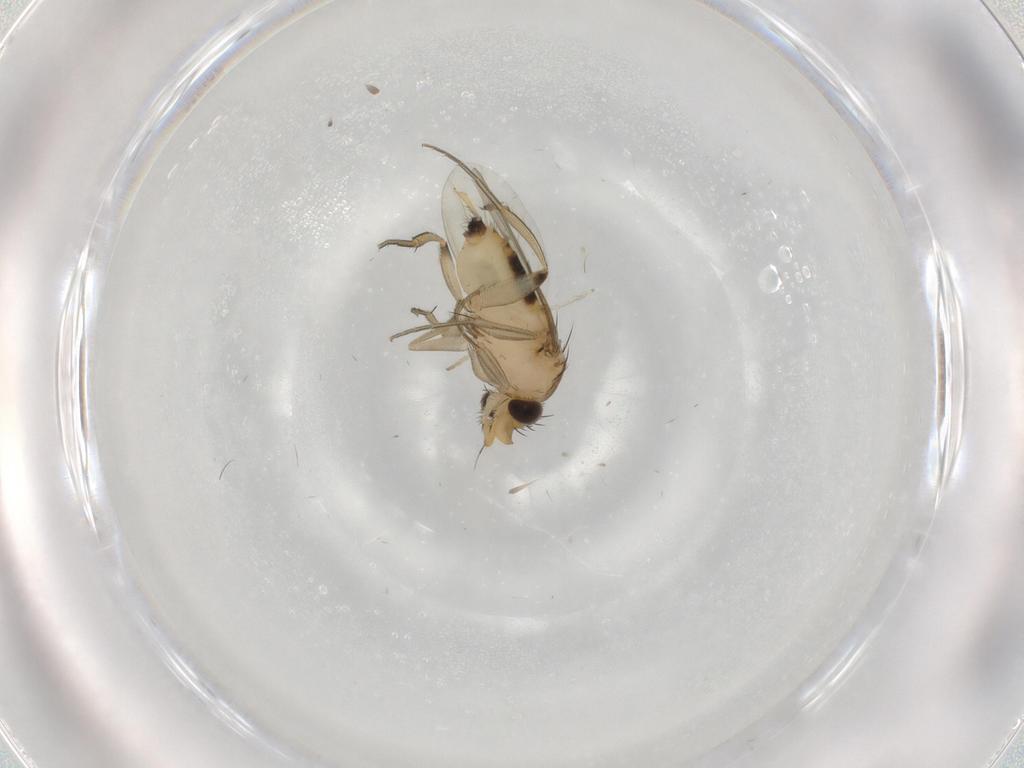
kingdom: Animalia
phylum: Arthropoda
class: Insecta
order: Diptera
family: Phoridae
